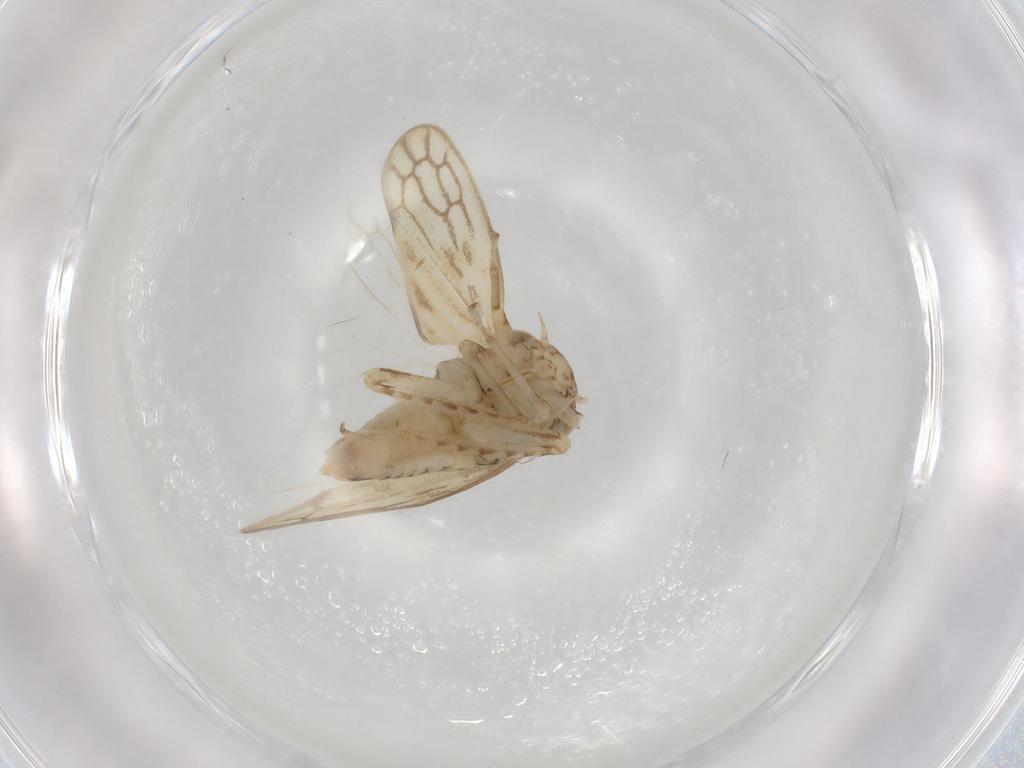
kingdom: Animalia
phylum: Arthropoda
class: Insecta
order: Hemiptera
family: Cicadellidae
